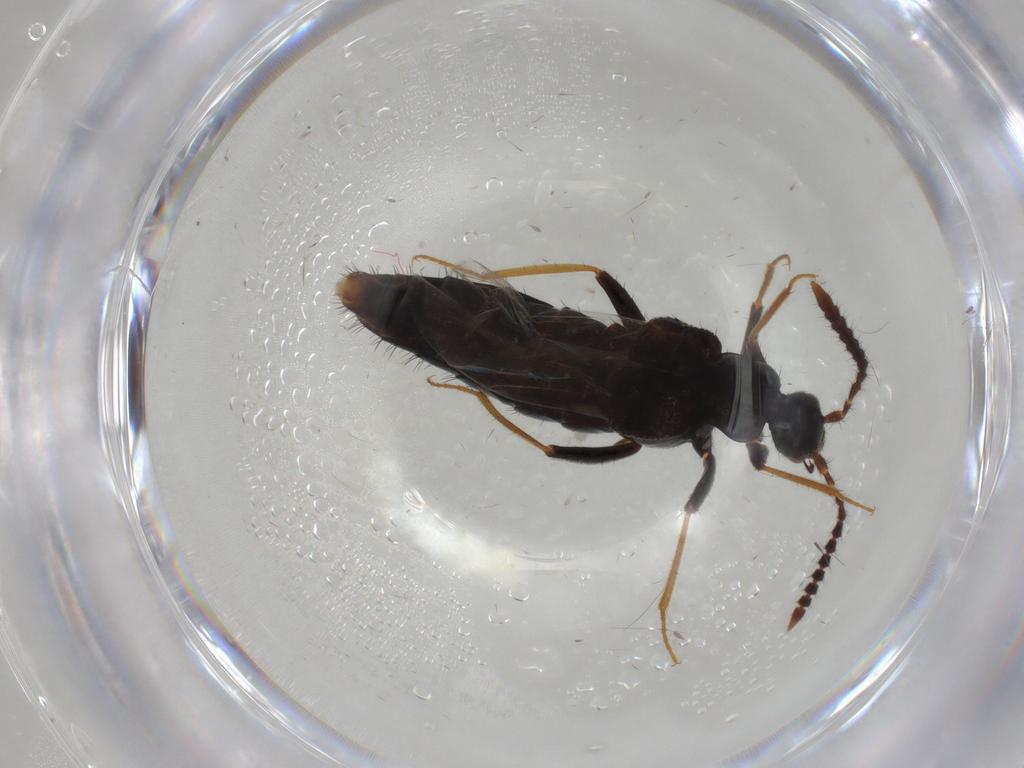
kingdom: Animalia
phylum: Arthropoda
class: Insecta
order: Coleoptera
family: Staphylinidae
